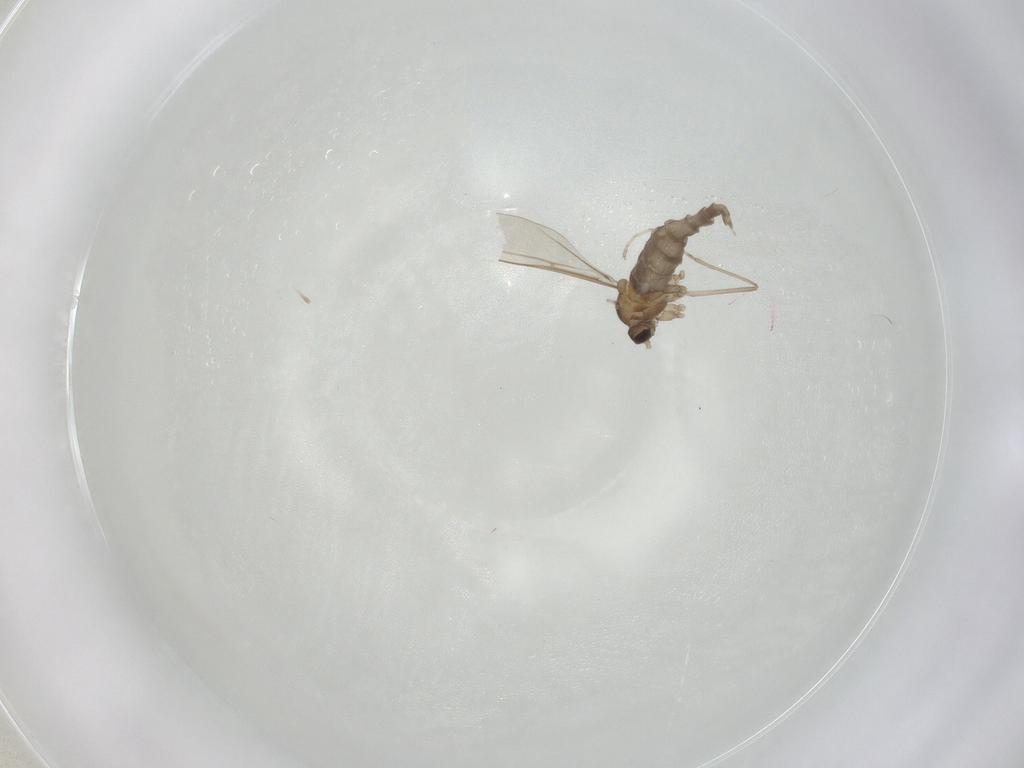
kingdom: Animalia
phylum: Arthropoda
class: Insecta
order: Diptera
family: Cecidomyiidae
